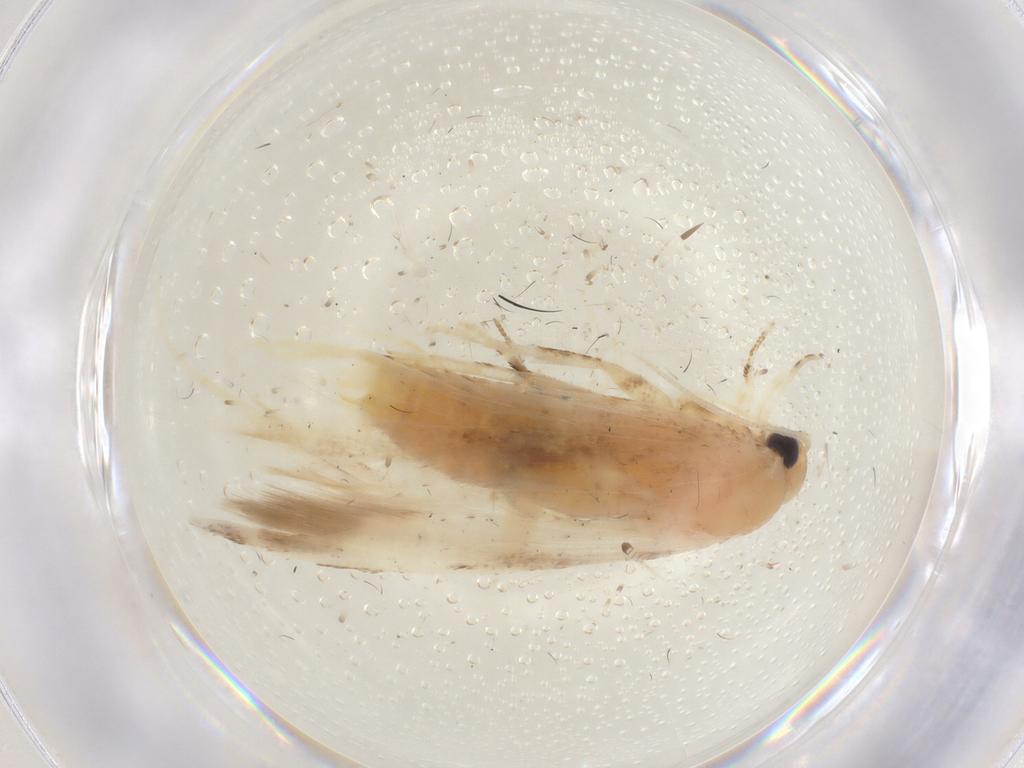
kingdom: Animalia
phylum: Arthropoda
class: Insecta
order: Lepidoptera
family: Gelechiidae
